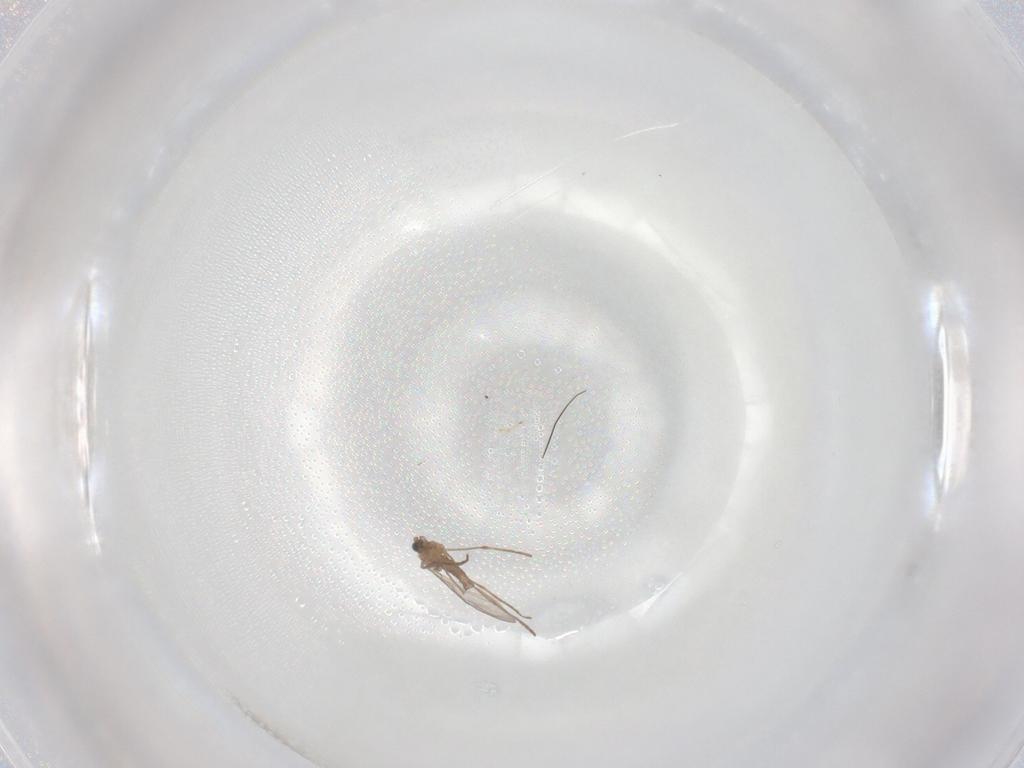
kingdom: Animalia
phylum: Arthropoda
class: Insecta
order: Diptera
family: Cecidomyiidae
